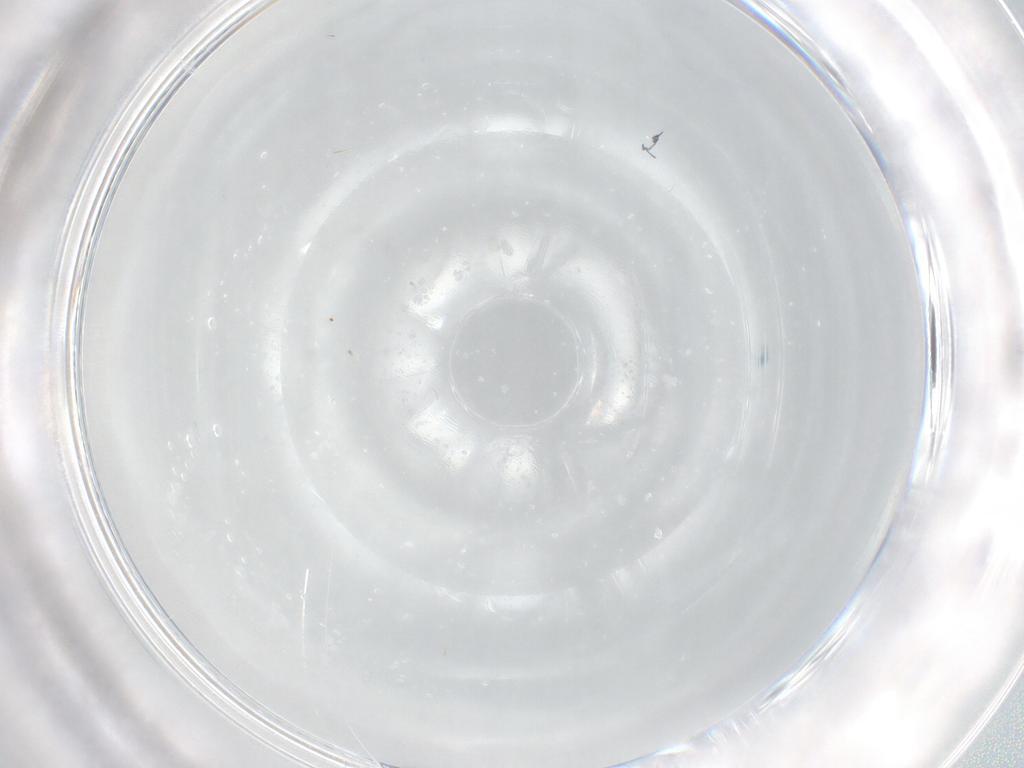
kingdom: Animalia
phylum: Arthropoda
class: Insecta
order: Diptera
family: Phoridae
